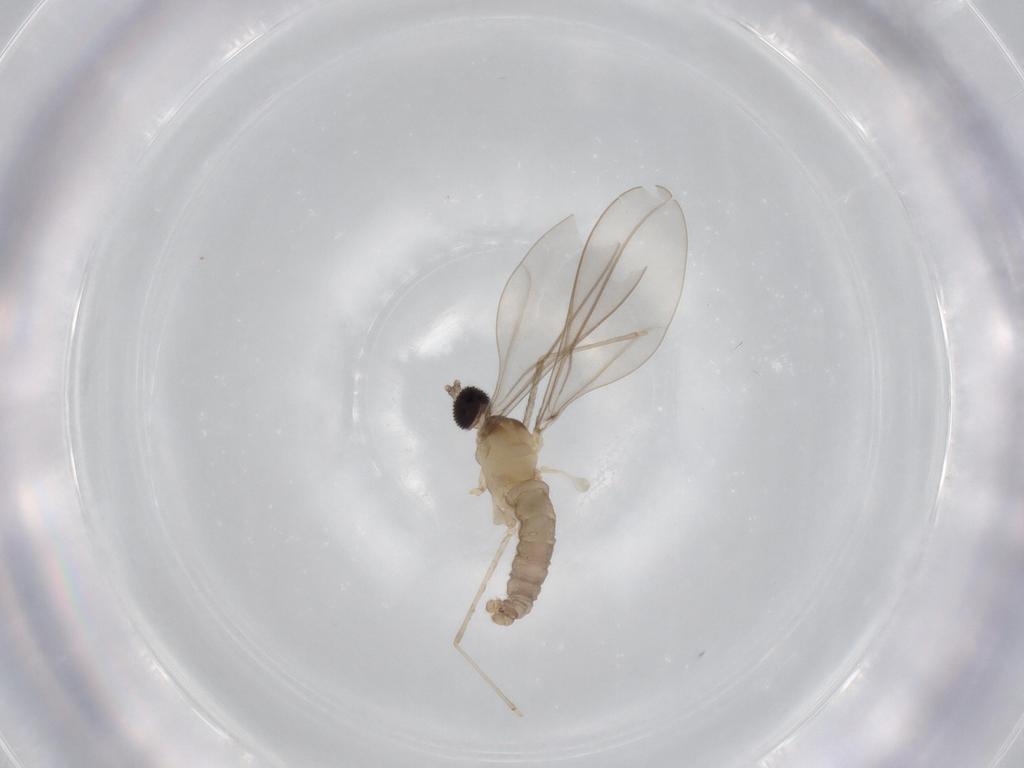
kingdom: Animalia
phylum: Arthropoda
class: Insecta
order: Diptera
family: Cecidomyiidae
